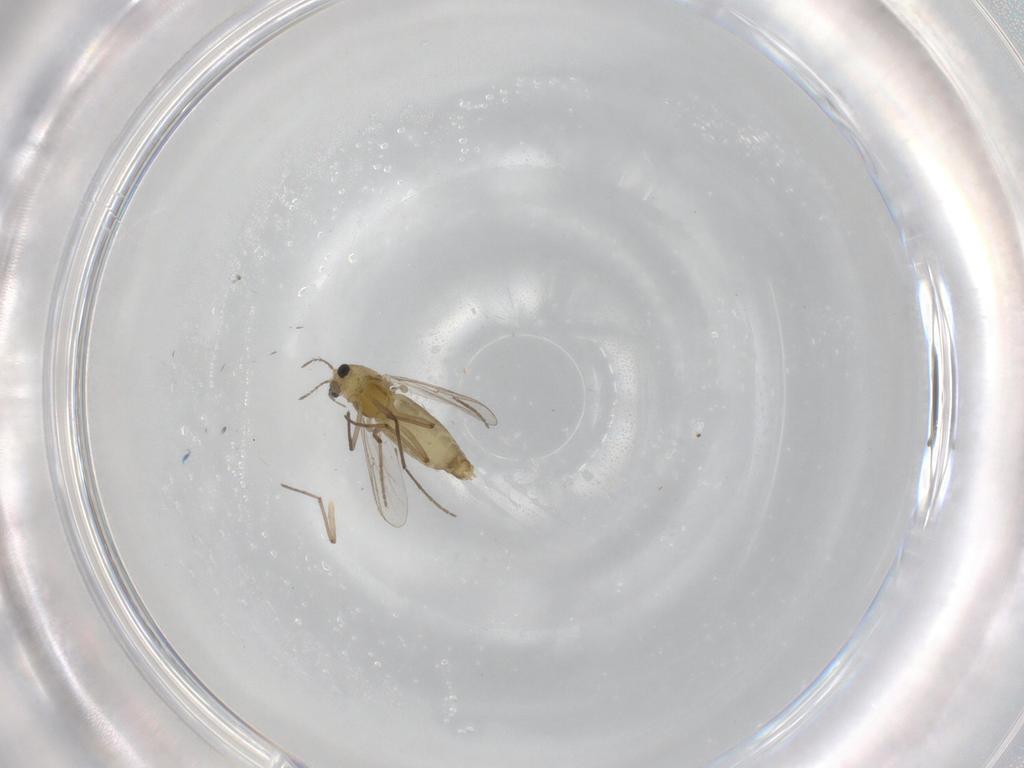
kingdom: Animalia
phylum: Arthropoda
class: Insecta
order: Diptera
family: Chironomidae
